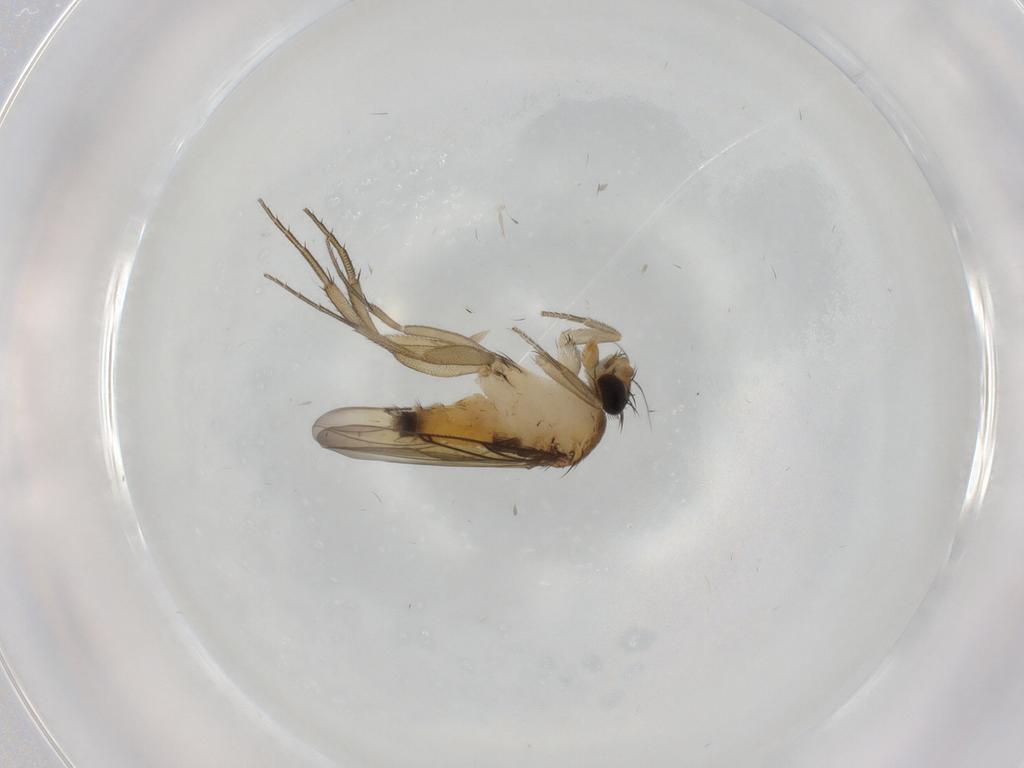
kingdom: Animalia
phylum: Arthropoda
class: Insecta
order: Diptera
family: Cecidomyiidae
